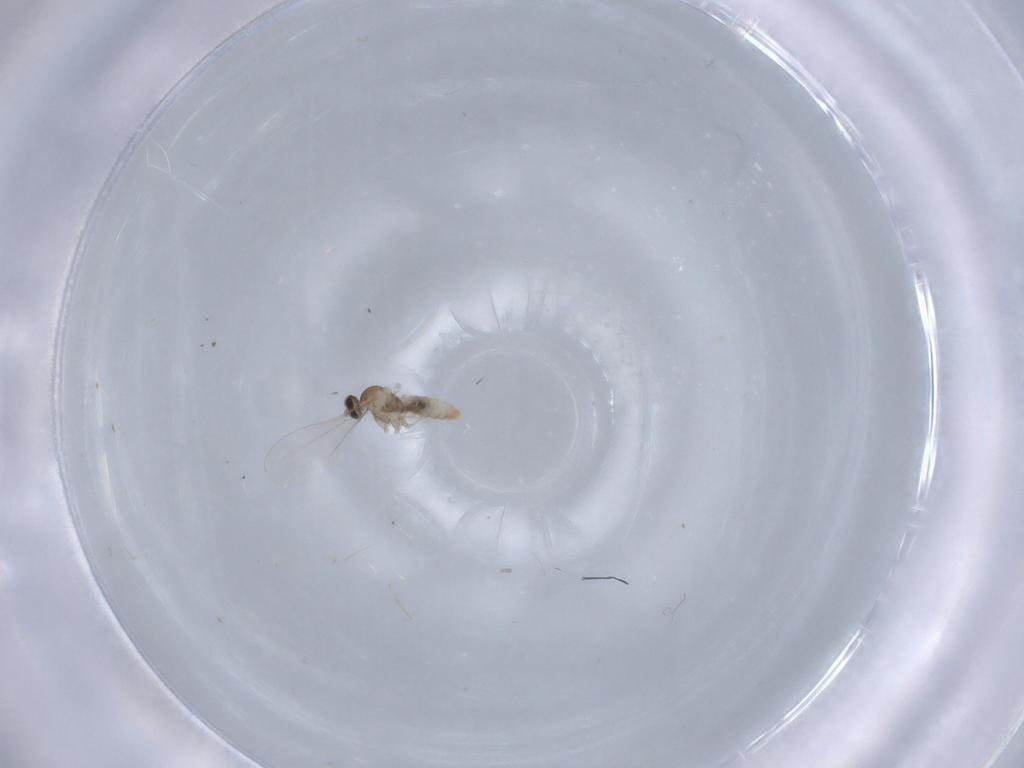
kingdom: Animalia
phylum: Arthropoda
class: Insecta
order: Diptera
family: Cecidomyiidae
